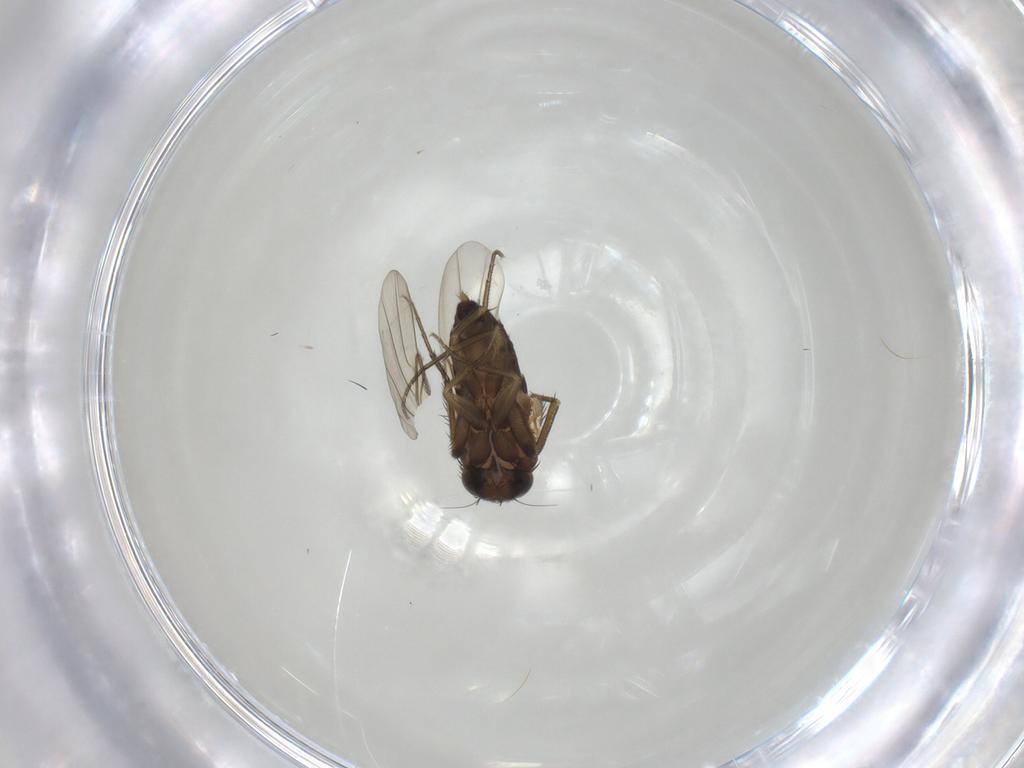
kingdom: Animalia
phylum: Arthropoda
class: Insecta
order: Diptera
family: Phoridae
